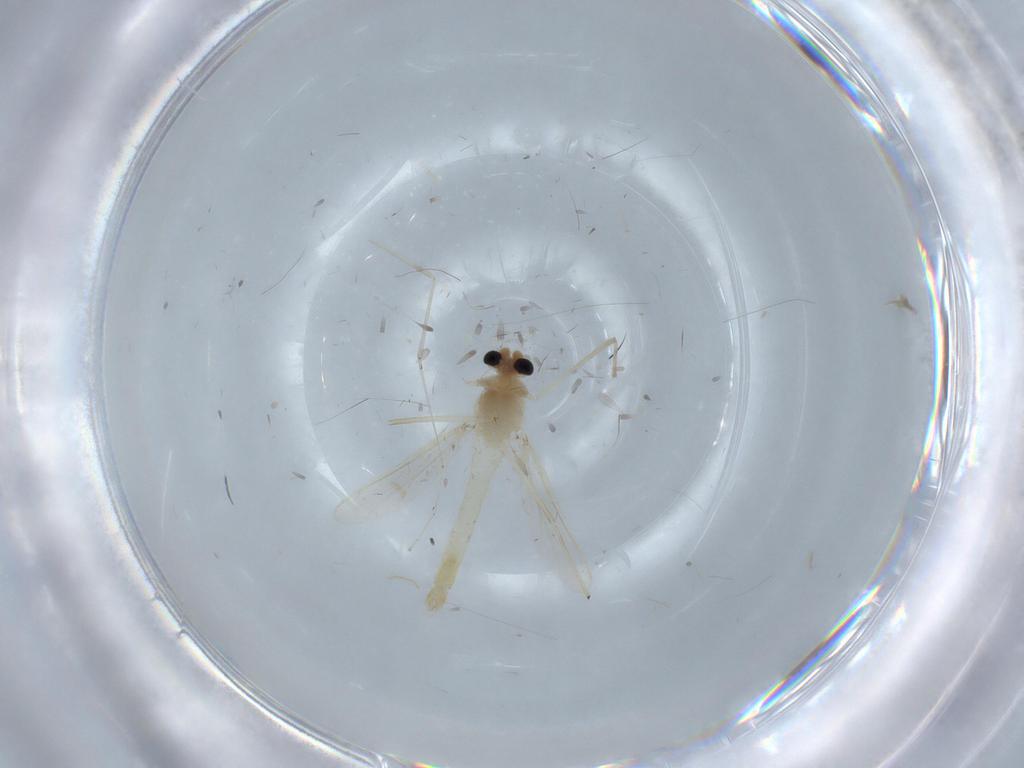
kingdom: Animalia
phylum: Arthropoda
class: Insecta
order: Diptera
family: Chironomidae
